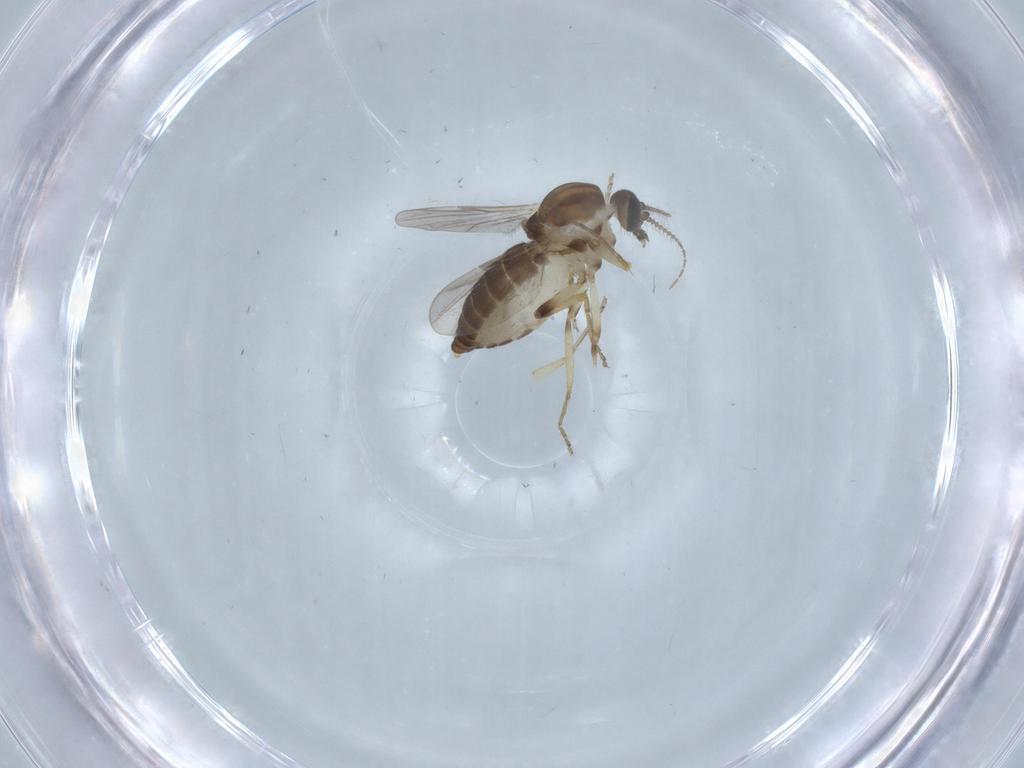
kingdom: Animalia
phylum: Arthropoda
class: Insecta
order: Diptera
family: Ceratopogonidae
